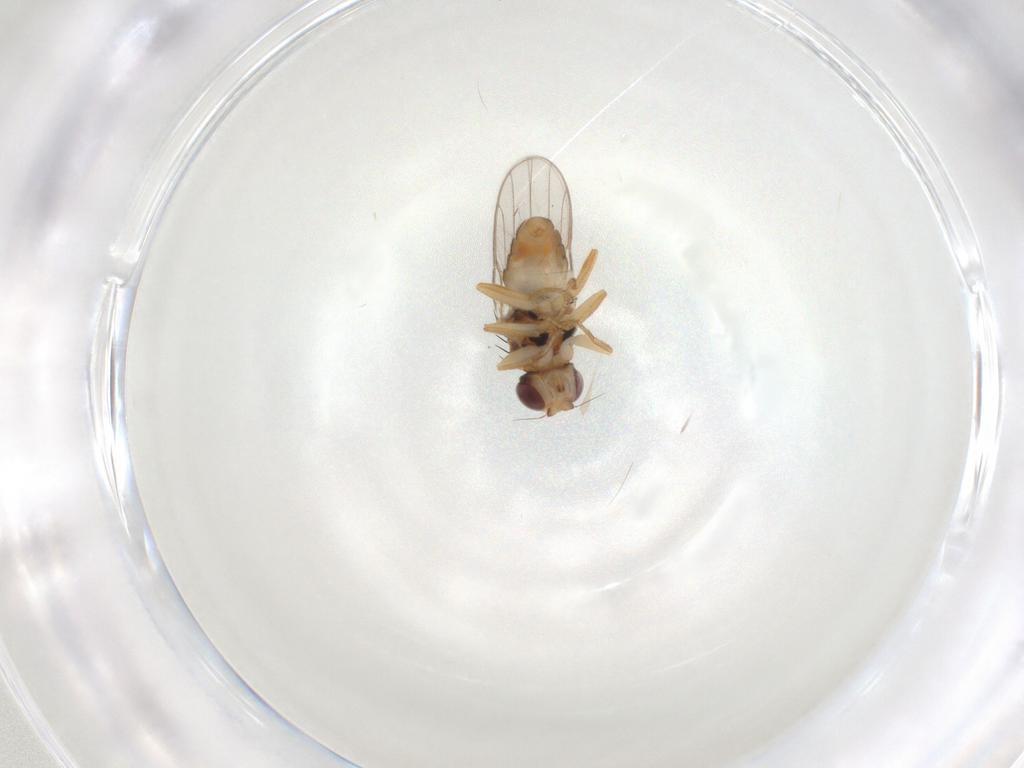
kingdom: Animalia
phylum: Arthropoda
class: Insecta
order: Diptera
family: Chloropidae
